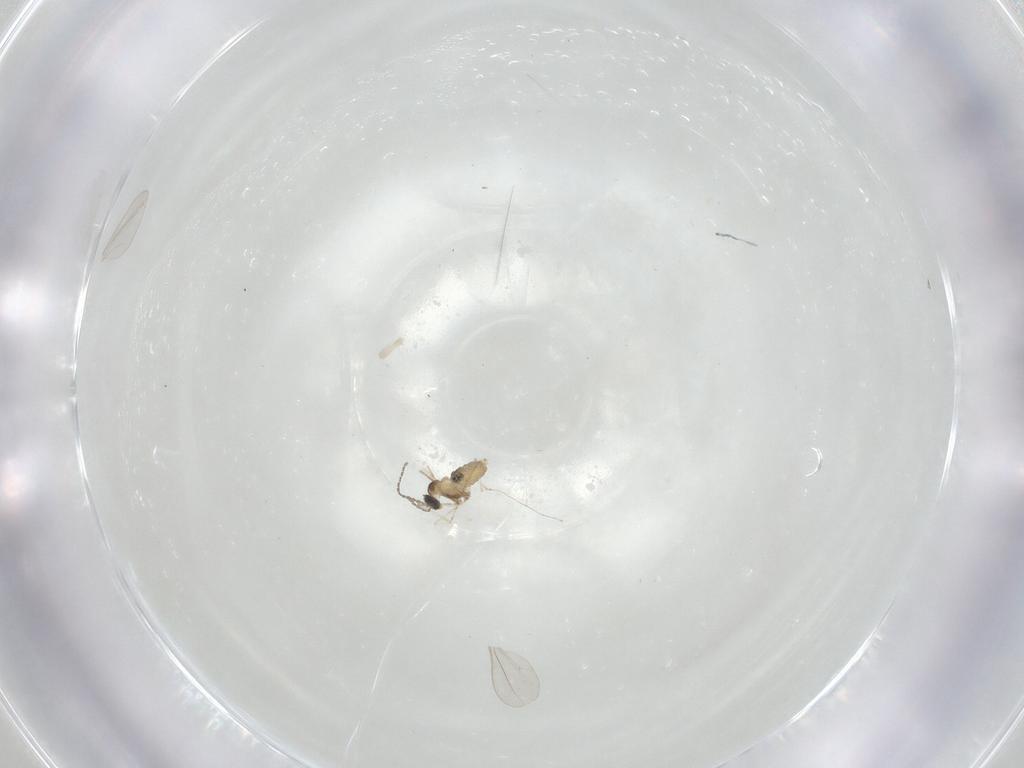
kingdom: Animalia
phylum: Arthropoda
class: Insecta
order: Diptera
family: Cecidomyiidae
